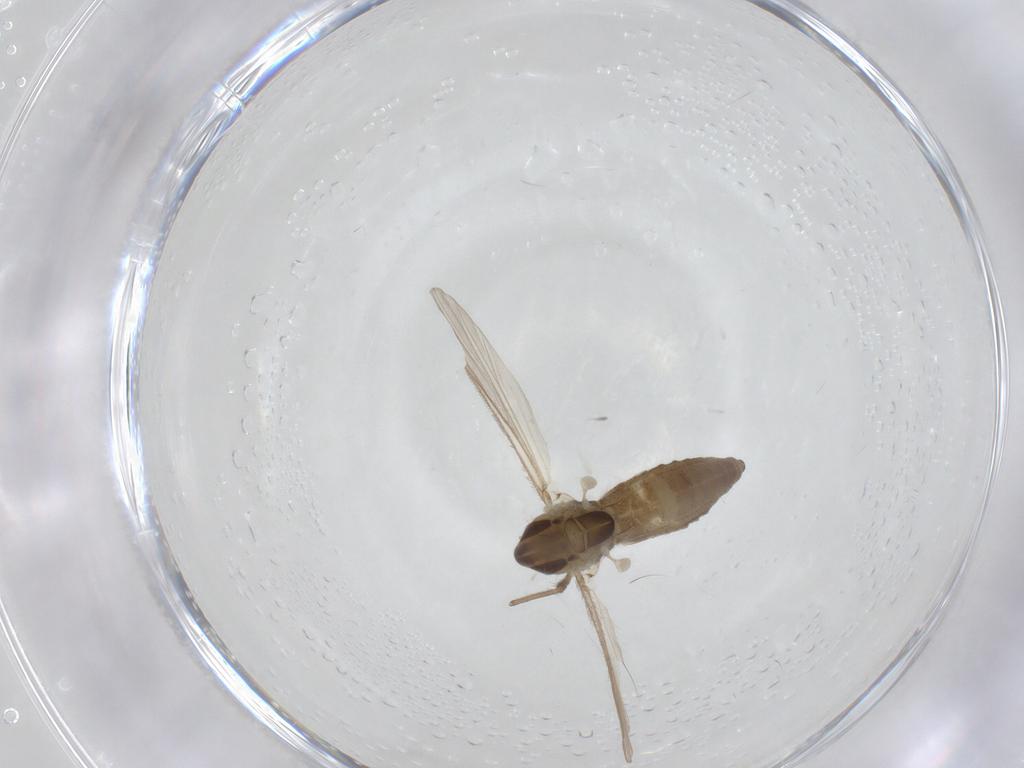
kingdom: Animalia
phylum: Arthropoda
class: Insecta
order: Diptera
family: Chironomidae
